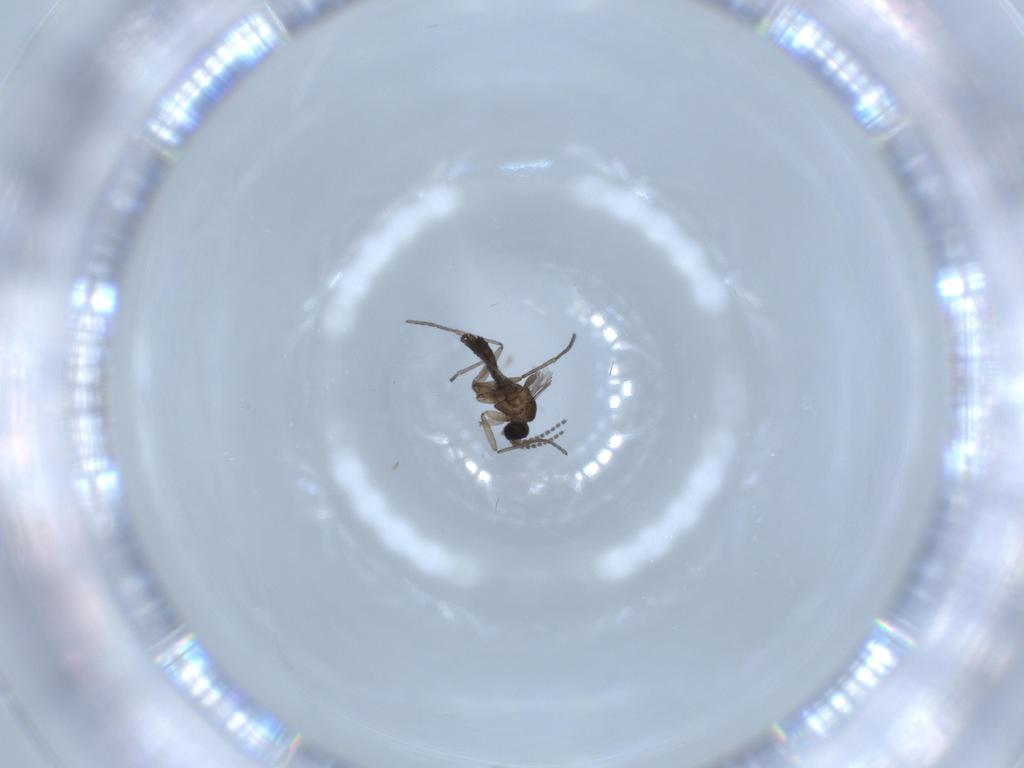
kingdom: Animalia
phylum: Arthropoda
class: Insecta
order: Diptera
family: Sciaridae
